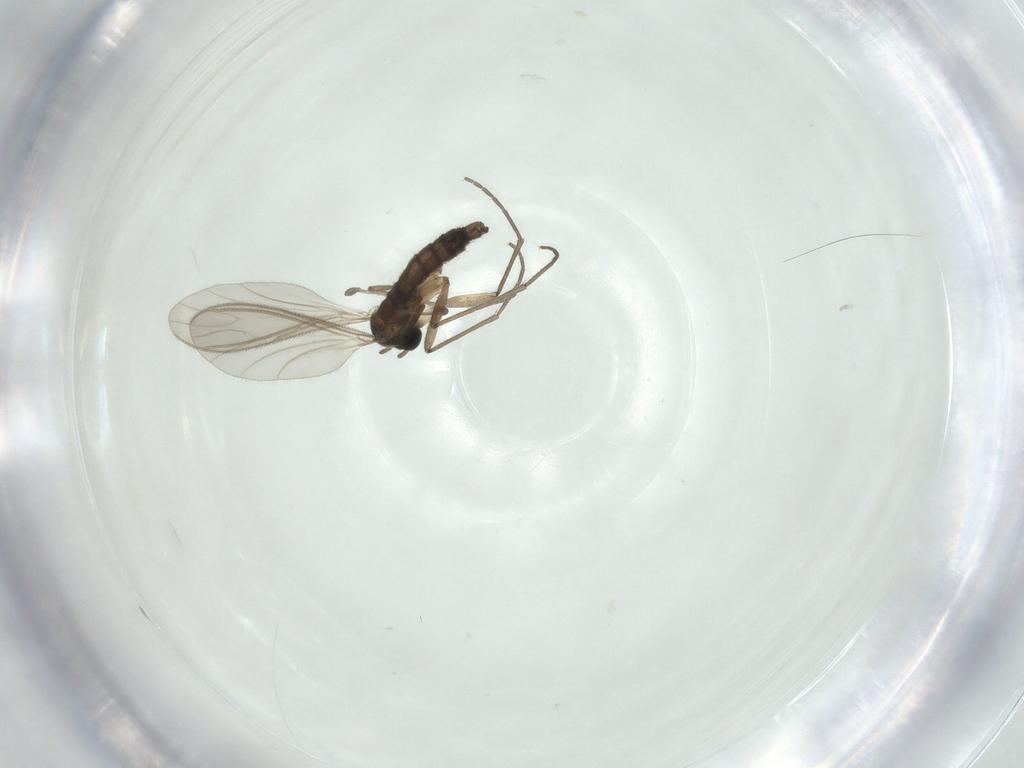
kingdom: Animalia
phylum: Arthropoda
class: Insecta
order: Diptera
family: Sciaridae
